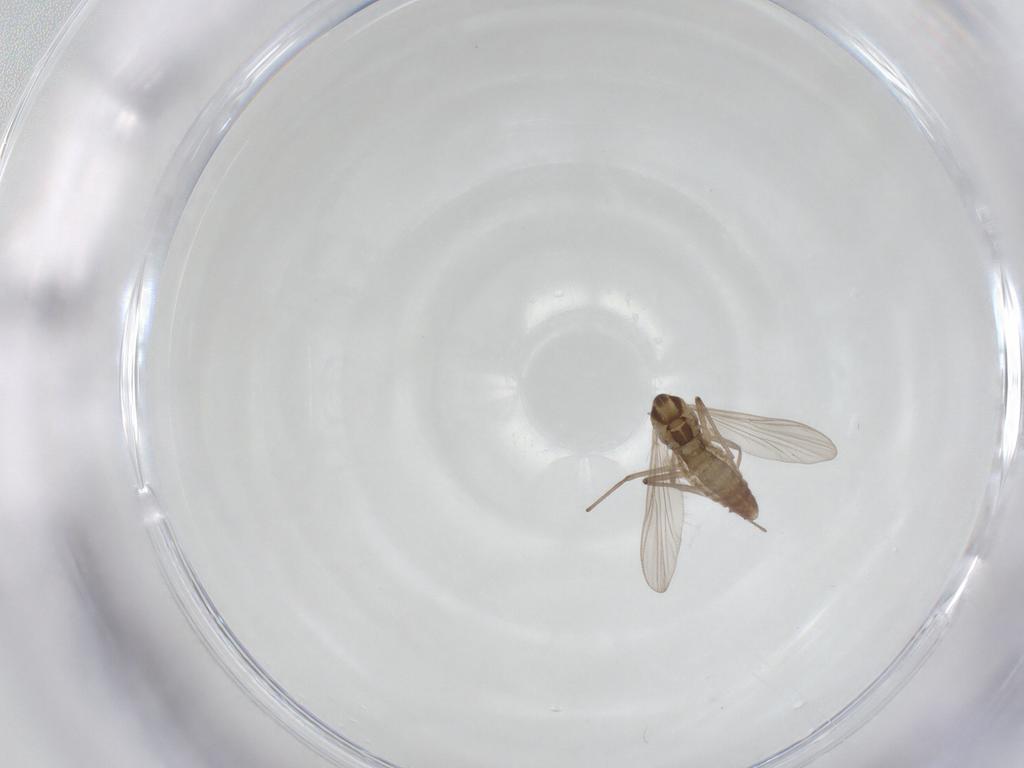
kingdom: Animalia
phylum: Arthropoda
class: Insecta
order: Diptera
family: Chironomidae
